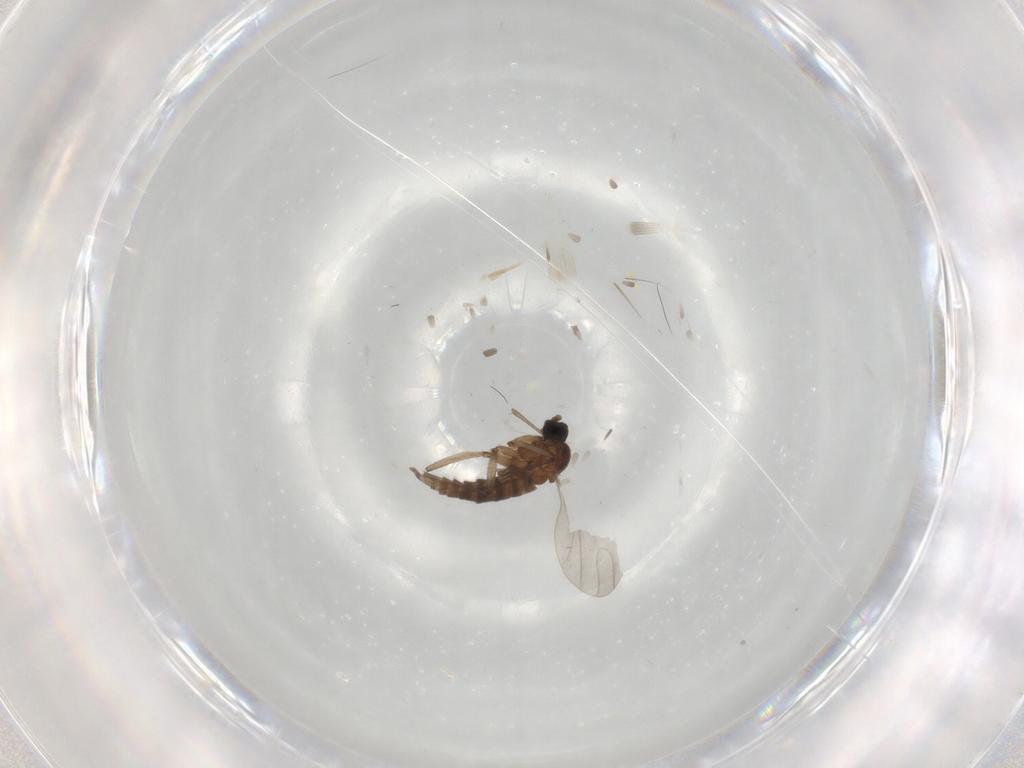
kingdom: Animalia
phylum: Arthropoda
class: Insecta
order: Diptera
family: Sciaridae
